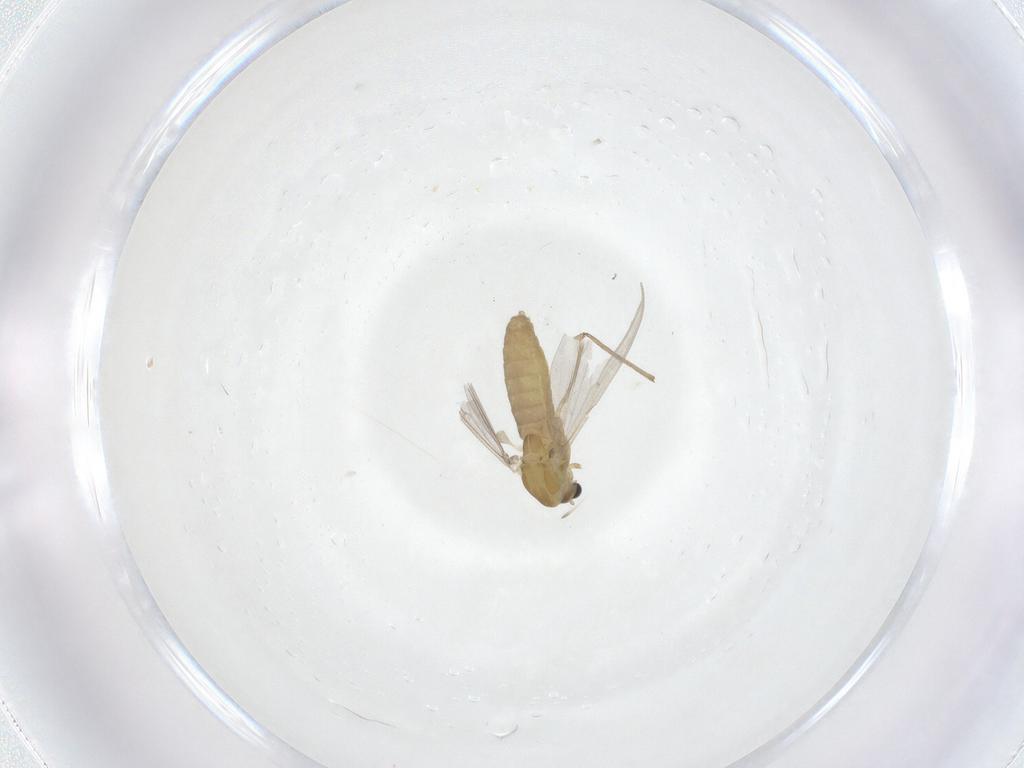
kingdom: Animalia
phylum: Arthropoda
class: Insecta
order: Diptera
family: Chironomidae
